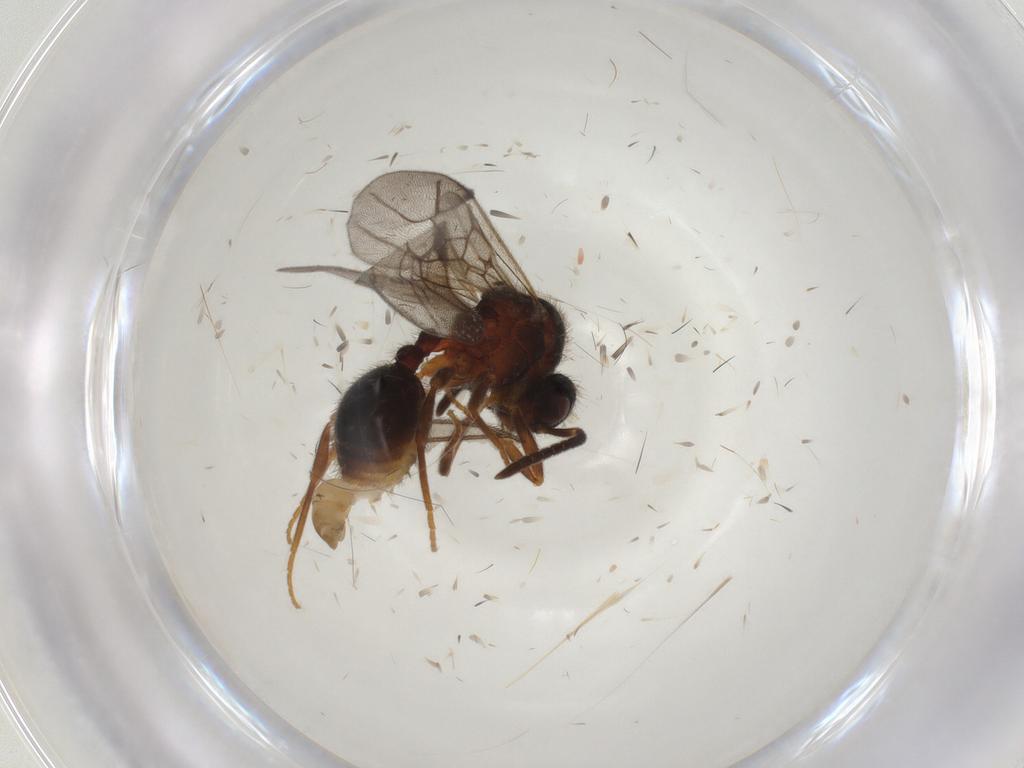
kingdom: Animalia
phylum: Arthropoda
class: Insecta
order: Hymenoptera
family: Formicidae
